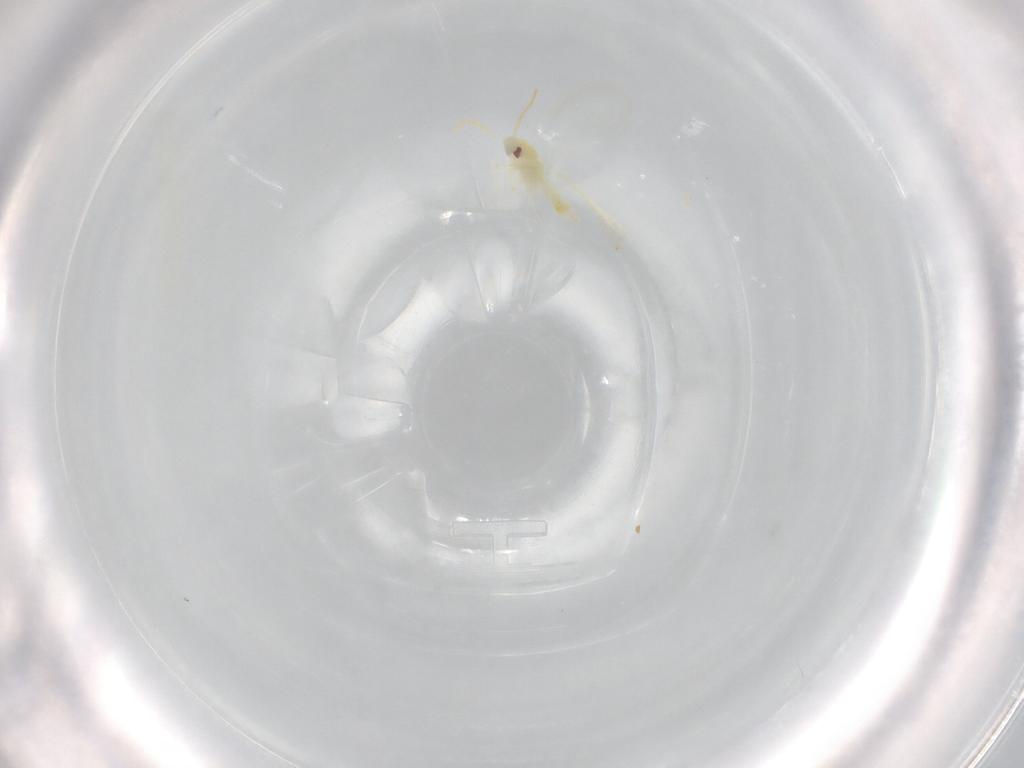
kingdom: Animalia
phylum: Arthropoda
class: Insecta
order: Hemiptera
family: Aleyrodidae
